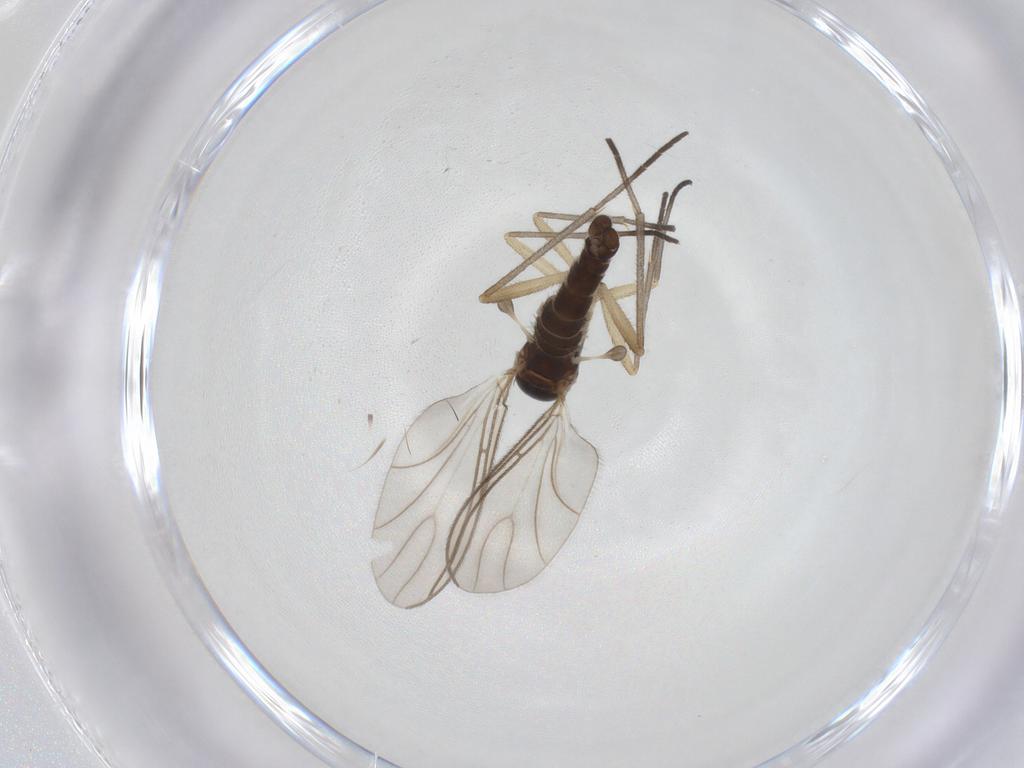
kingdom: Animalia
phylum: Arthropoda
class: Insecta
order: Diptera
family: Sciaridae
